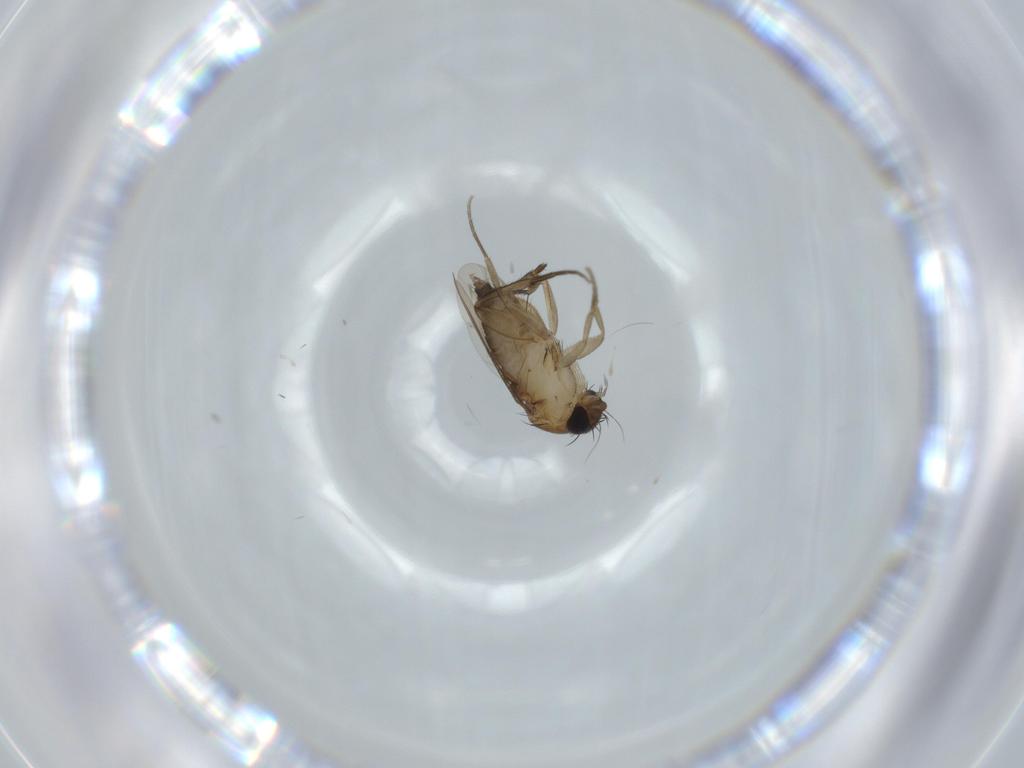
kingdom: Animalia
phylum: Arthropoda
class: Insecta
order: Diptera
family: Phoridae
